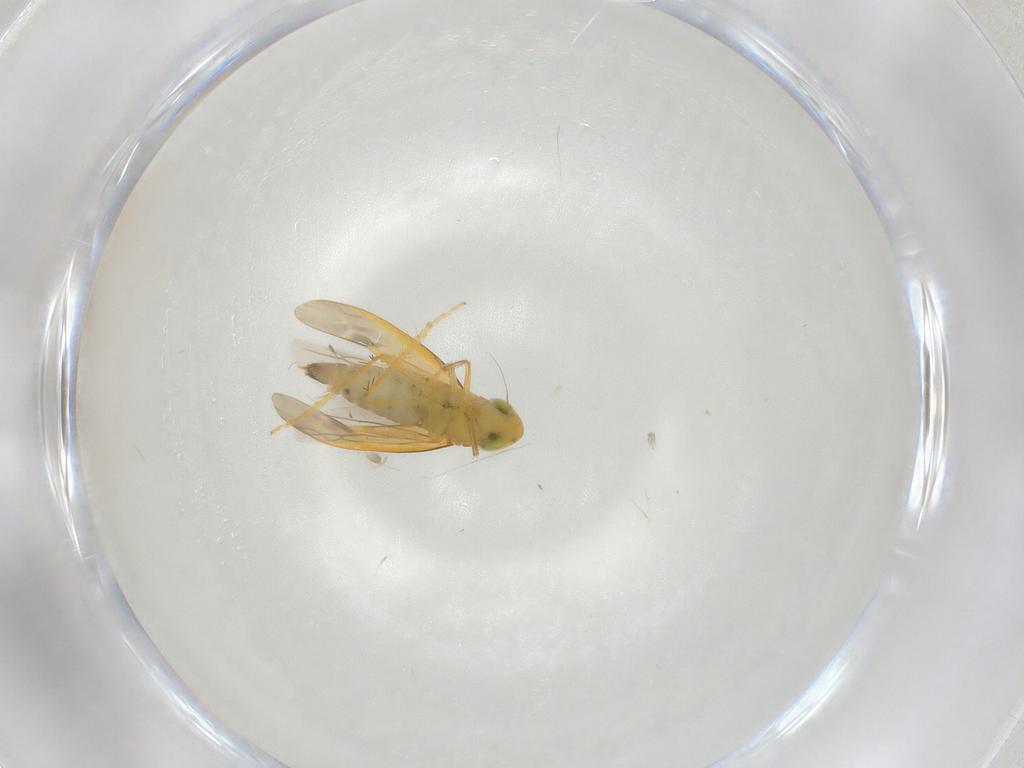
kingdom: Animalia
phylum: Arthropoda
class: Insecta
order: Hemiptera
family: Cicadellidae
